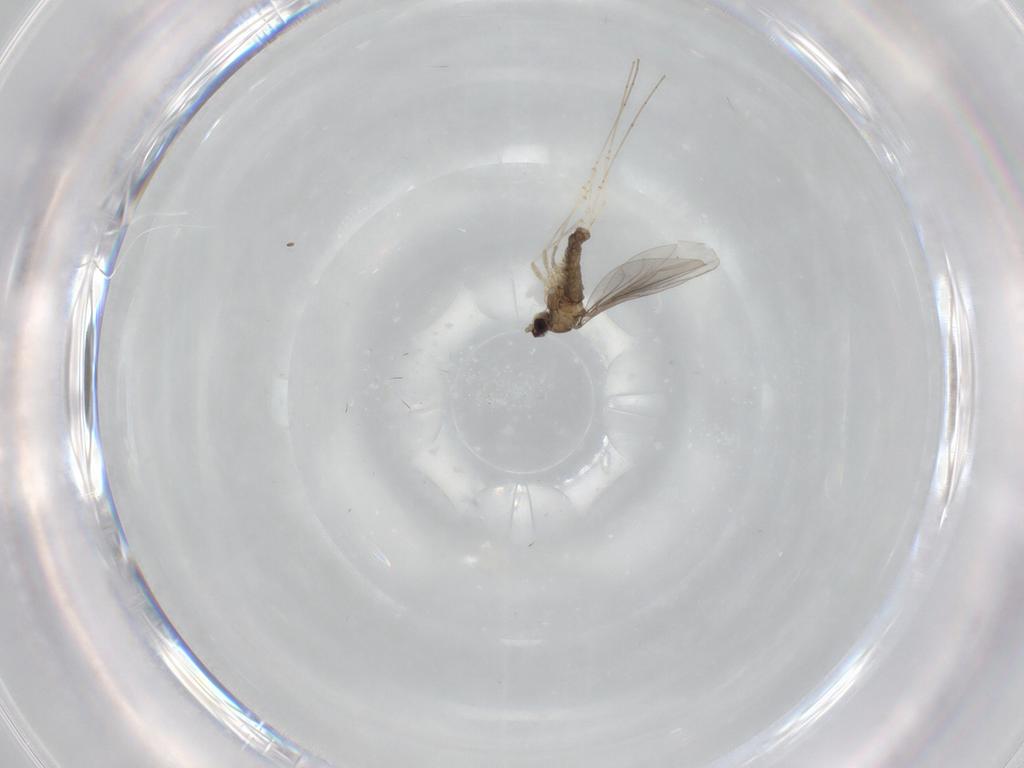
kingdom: Animalia
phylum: Arthropoda
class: Insecta
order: Diptera
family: Cecidomyiidae
